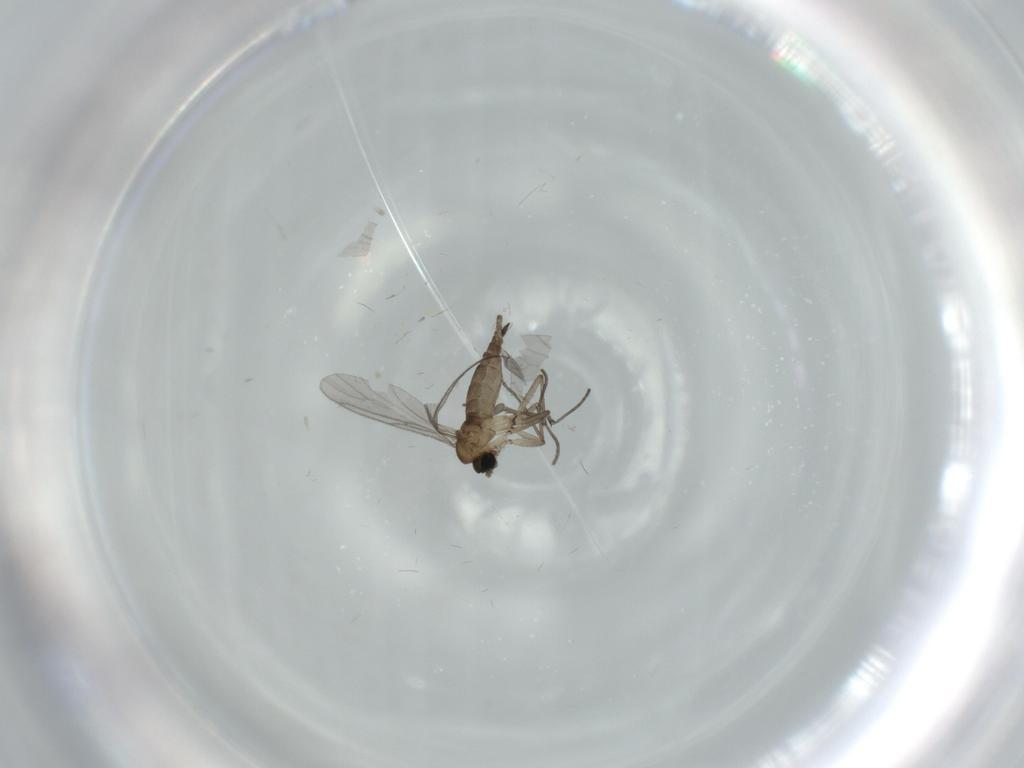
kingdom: Animalia
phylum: Arthropoda
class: Insecta
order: Diptera
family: Sciaridae
